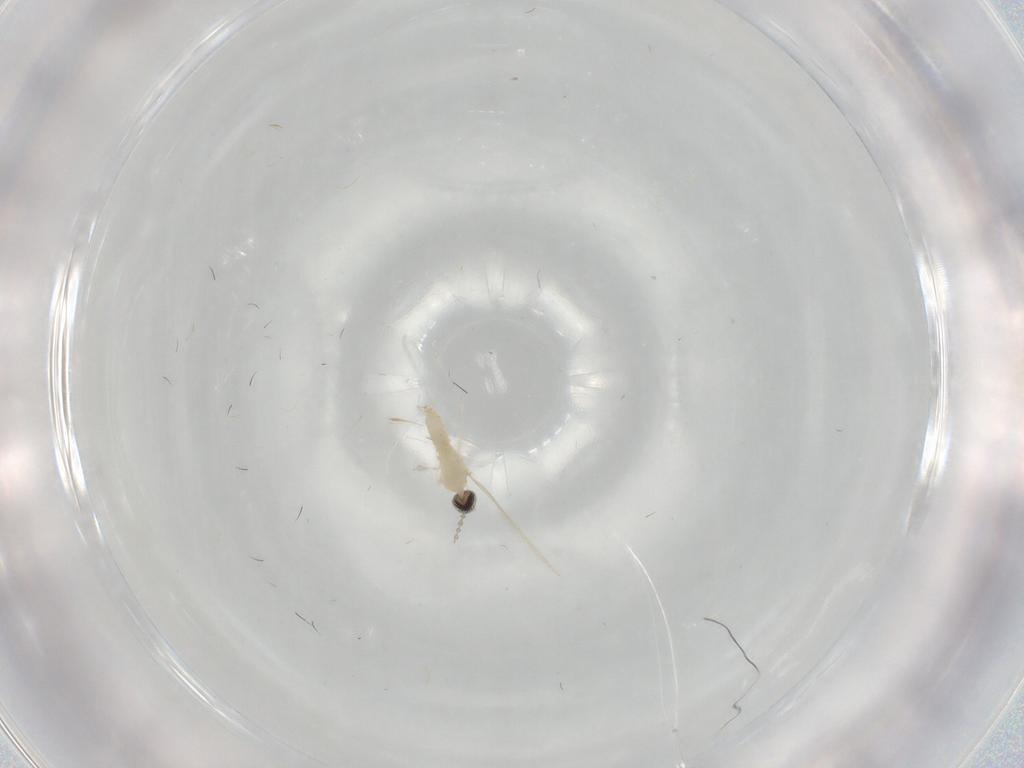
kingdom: Animalia
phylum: Arthropoda
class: Insecta
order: Diptera
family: Cecidomyiidae
